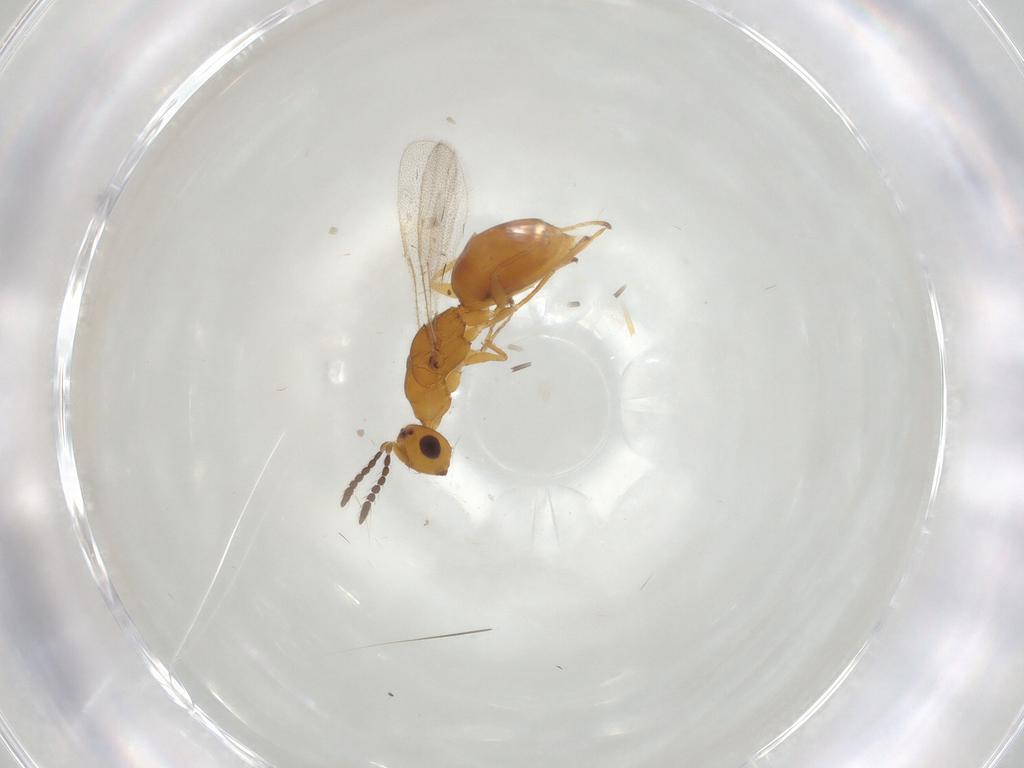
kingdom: Animalia
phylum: Arthropoda
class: Insecta
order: Hymenoptera
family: Eurytomidae
